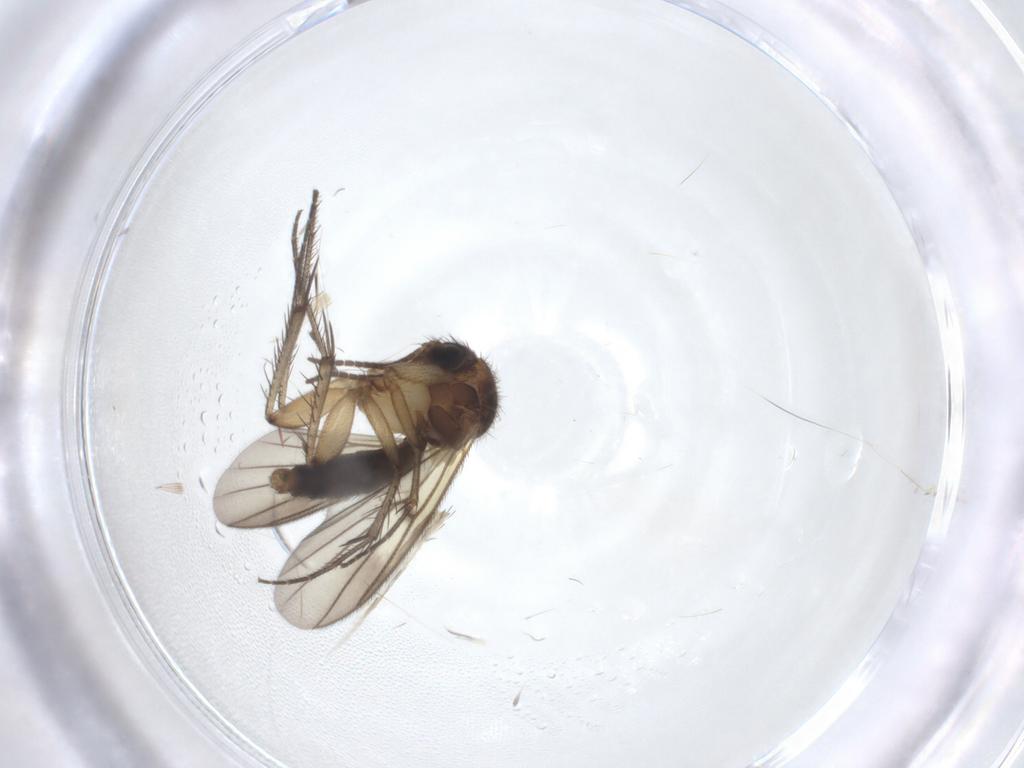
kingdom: Animalia
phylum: Arthropoda
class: Insecta
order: Lepidoptera
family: Pyralidae
